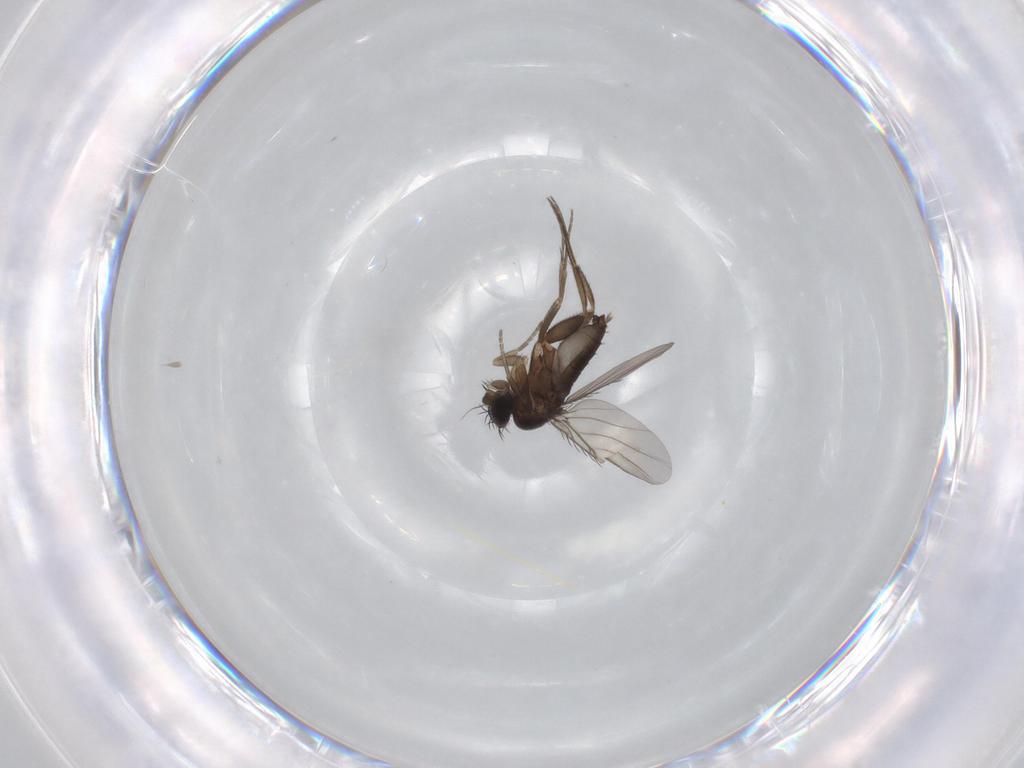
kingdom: Animalia
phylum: Arthropoda
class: Insecta
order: Diptera
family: Phoridae
